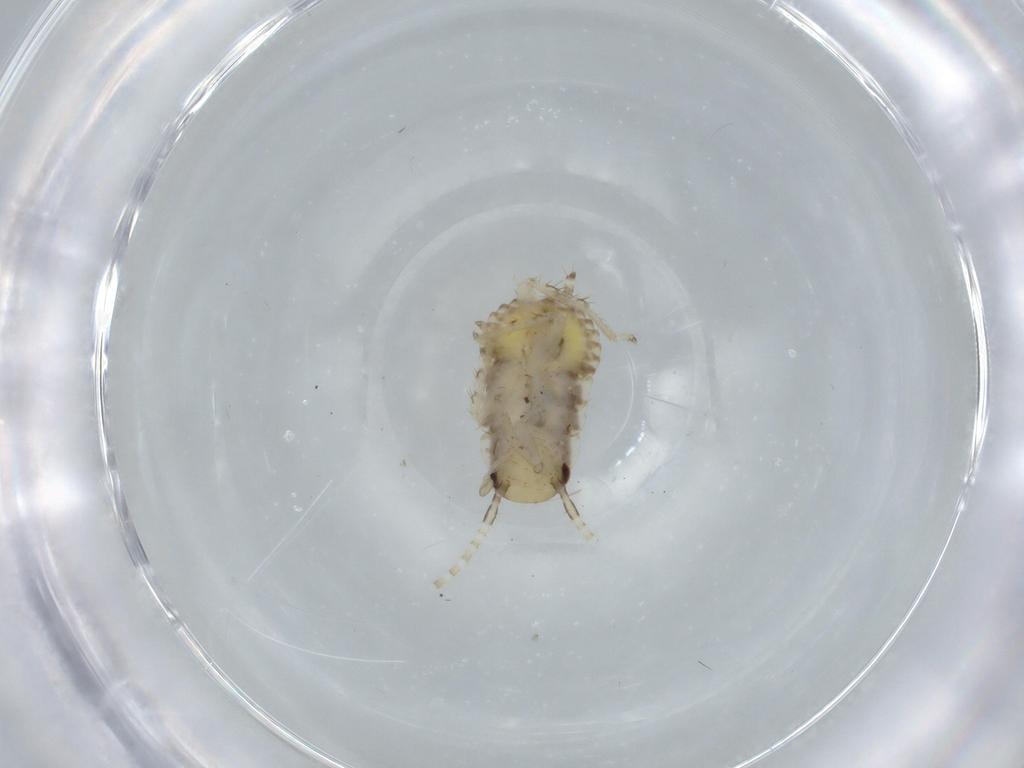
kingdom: Animalia
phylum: Arthropoda
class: Insecta
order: Blattodea
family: Ectobiidae
